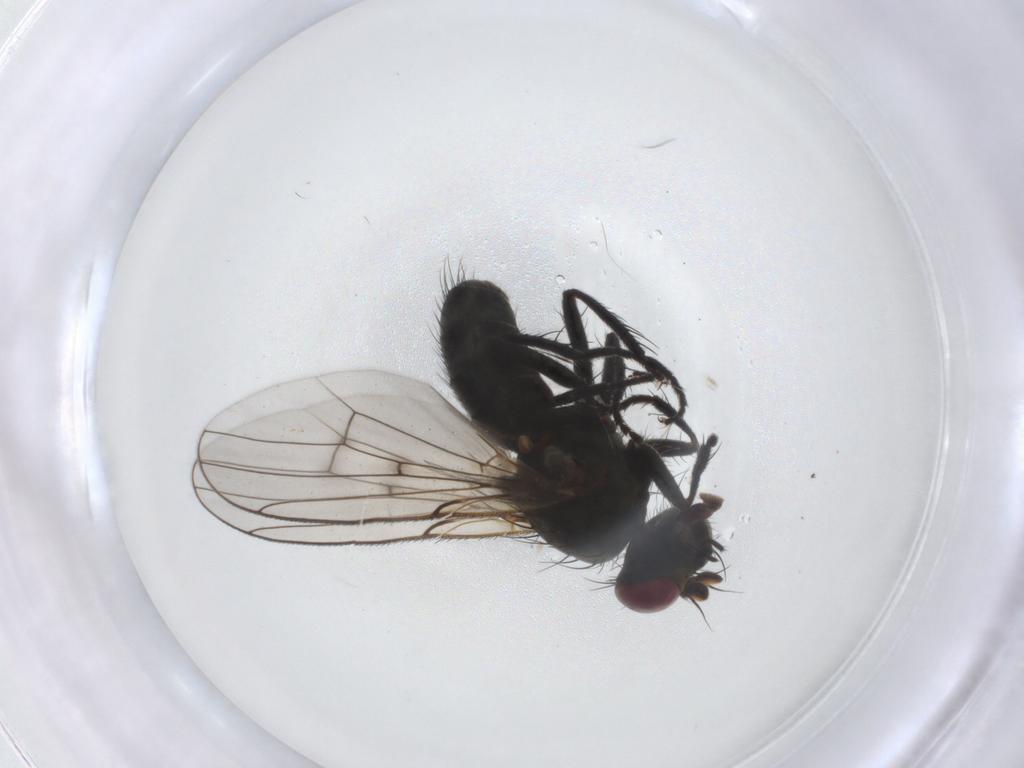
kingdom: Animalia
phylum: Arthropoda
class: Insecta
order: Diptera
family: Muscidae
